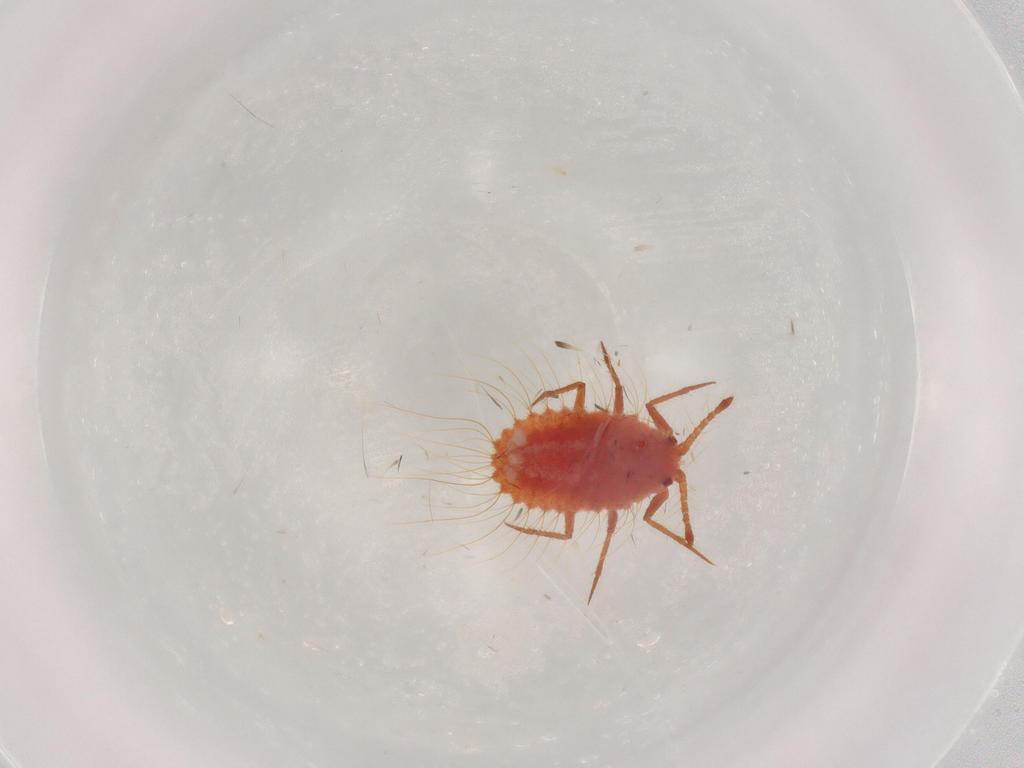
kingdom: Animalia
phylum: Arthropoda
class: Insecta
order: Hemiptera
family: Monophlebidae
